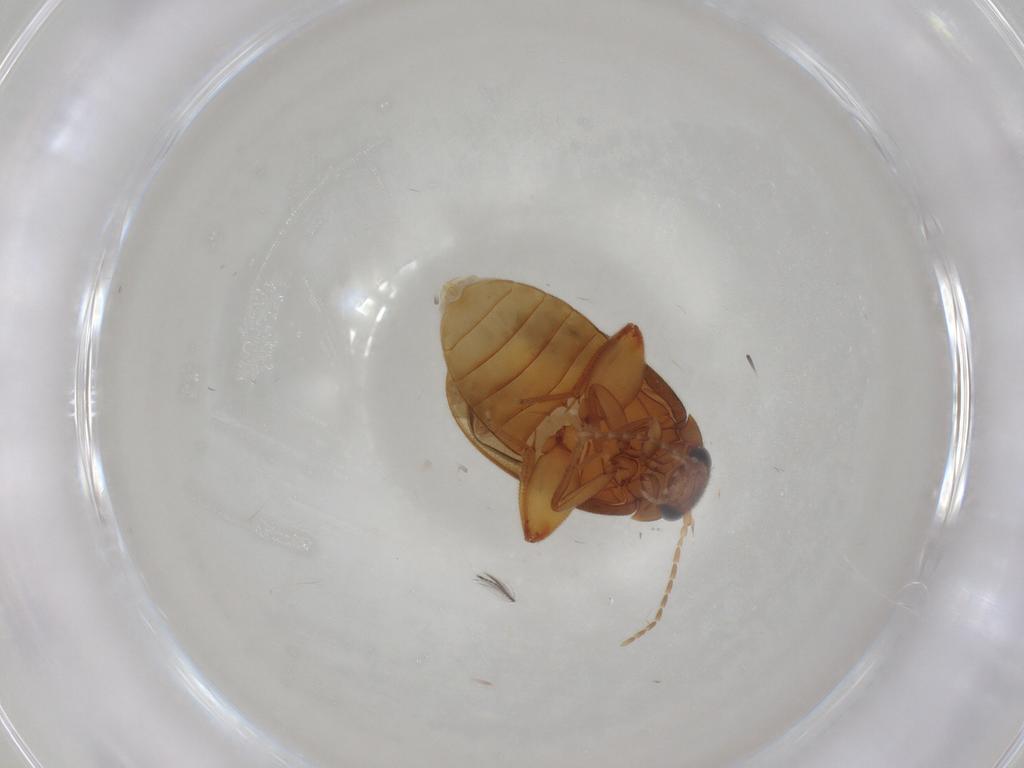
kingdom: Animalia
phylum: Arthropoda
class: Insecta
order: Coleoptera
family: Scirtidae
